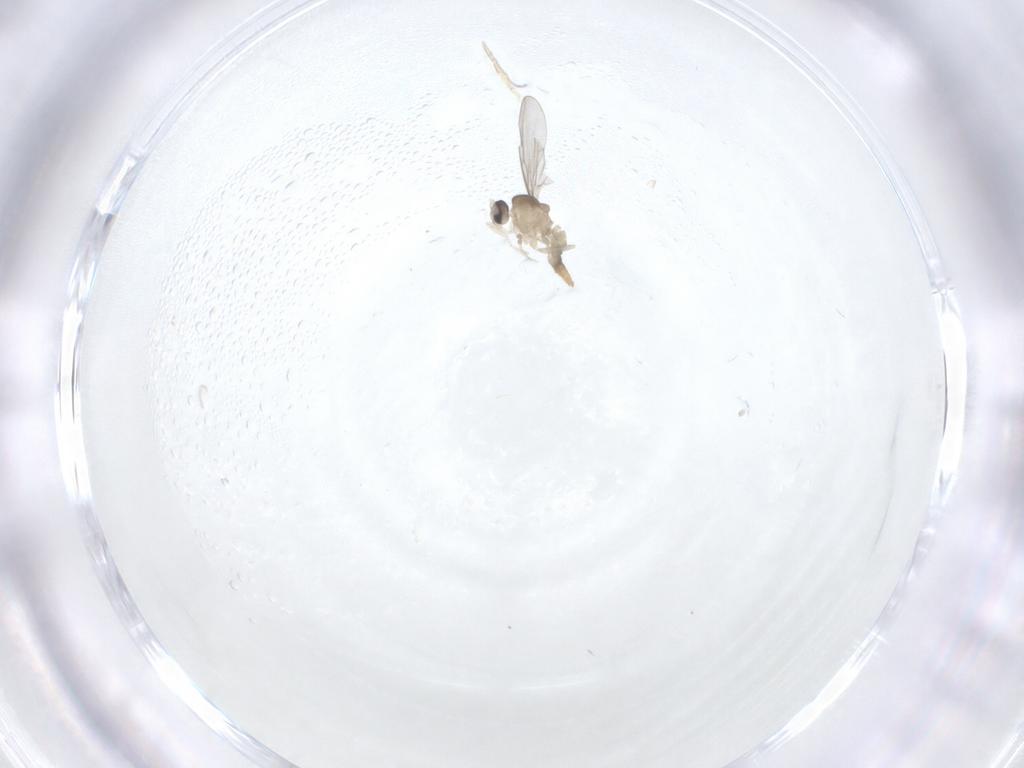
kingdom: Animalia
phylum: Arthropoda
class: Insecta
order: Diptera
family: Cecidomyiidae
